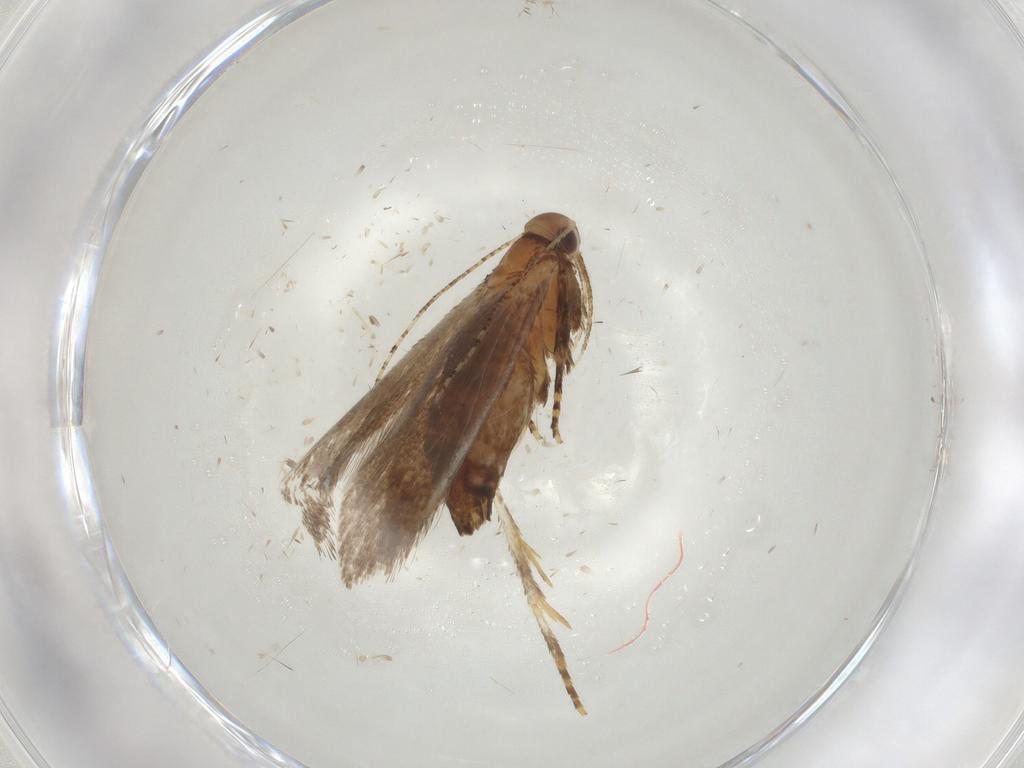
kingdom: Animalia
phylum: Arthropoda
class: Insecta
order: Lepidoptera
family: Oecophoridae
